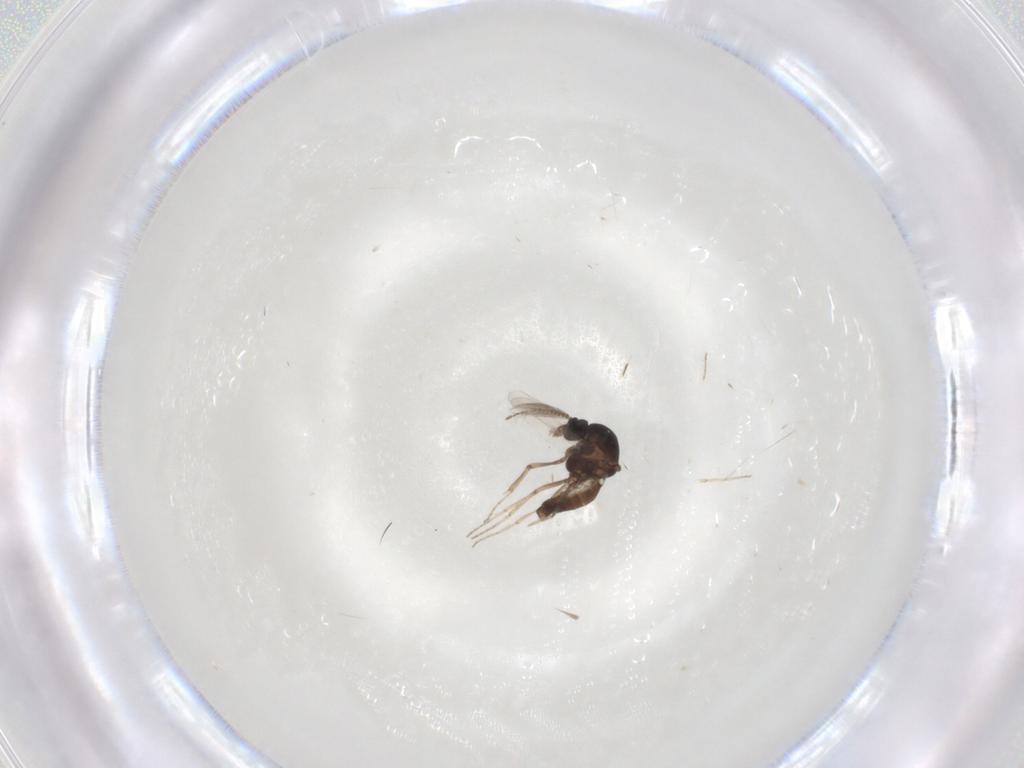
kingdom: Animalia
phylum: Arthropoda
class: Insecta
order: Diptera
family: Ceratopogonidae
